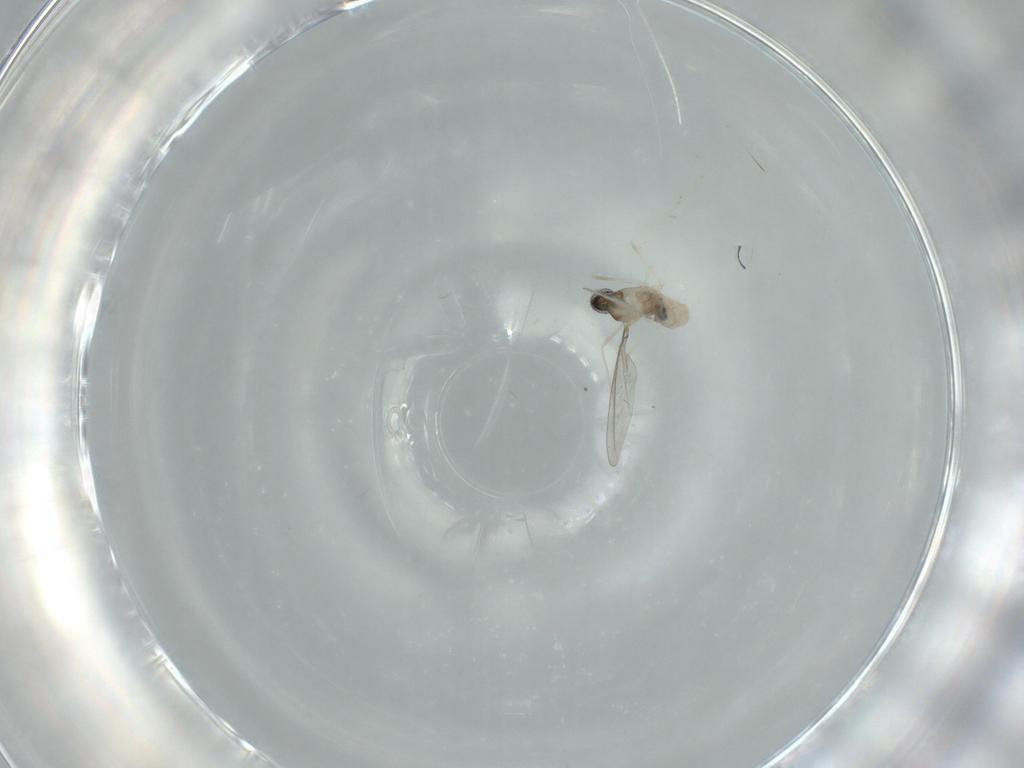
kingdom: Animalia
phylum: Arthropoda
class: Insecta
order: Diptera
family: Cecidomyiidae
